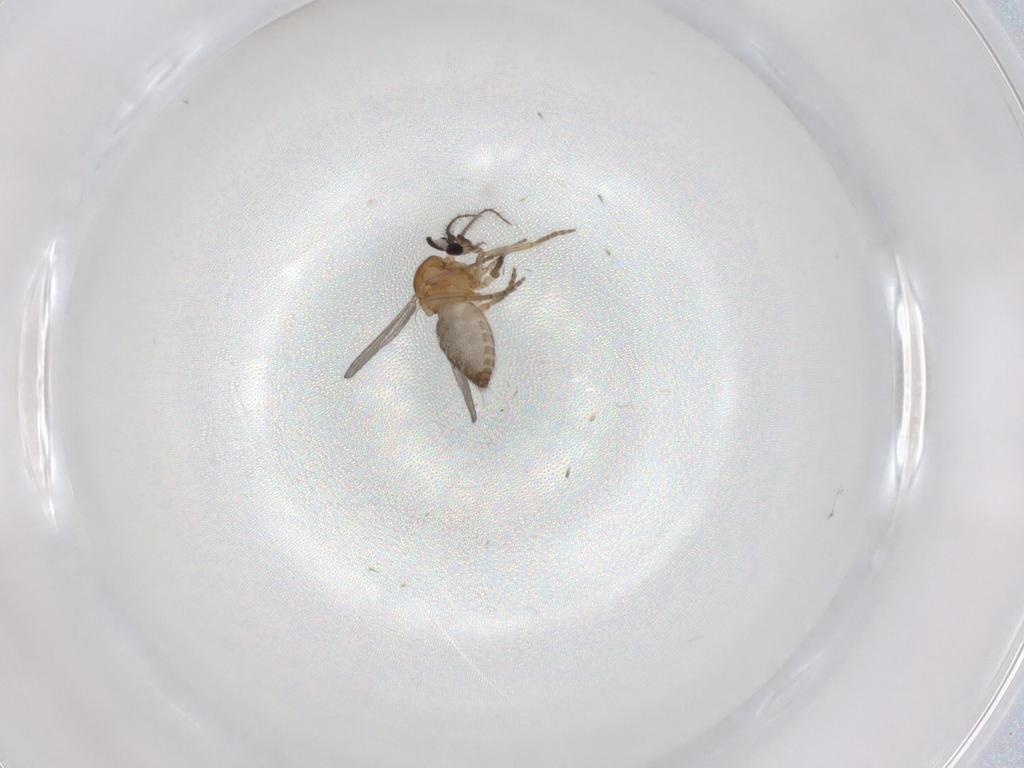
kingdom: Animalia
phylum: Arthropoda
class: Insecta
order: Diptera
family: Ceratopogonidae
